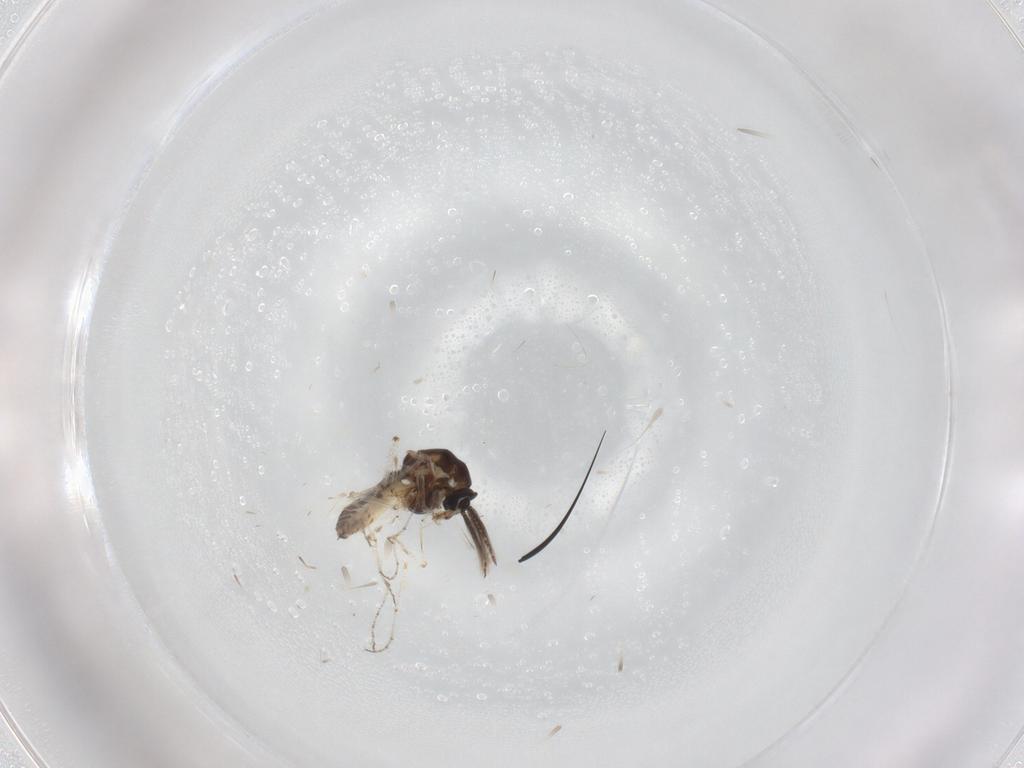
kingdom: Animalia
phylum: Arthropoda
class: Insecta
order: Diptera
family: Ceratopogonidae
